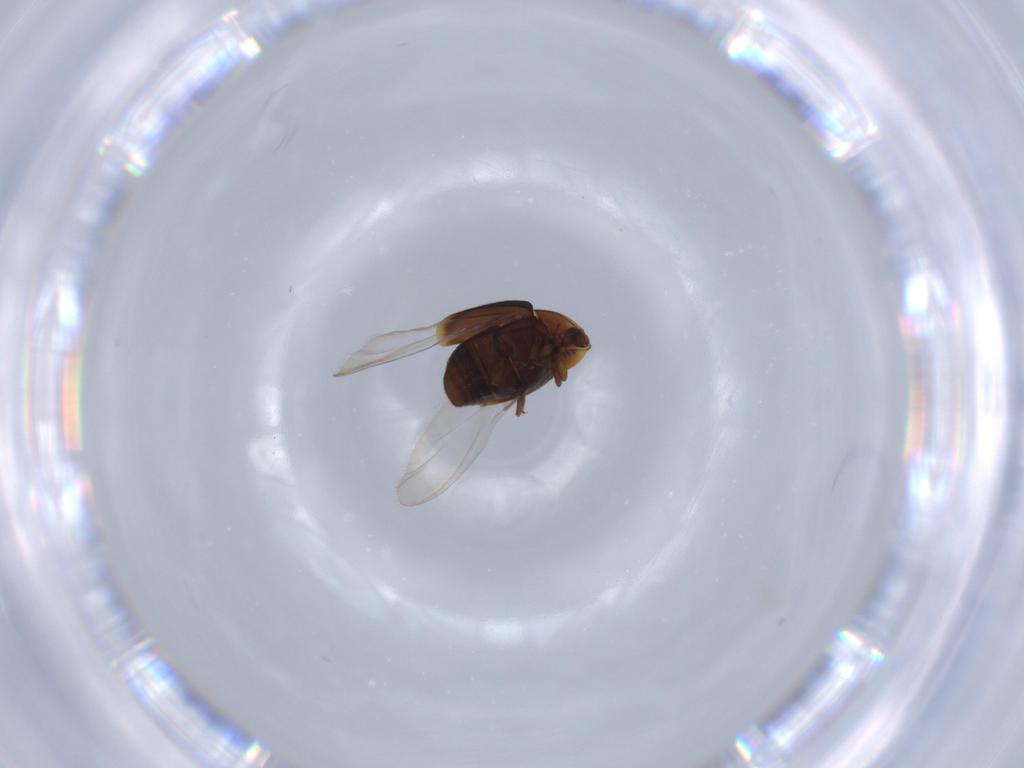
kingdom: Animalia
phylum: Arthropoda
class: Insecta
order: Coleoptera
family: Corylophidae
